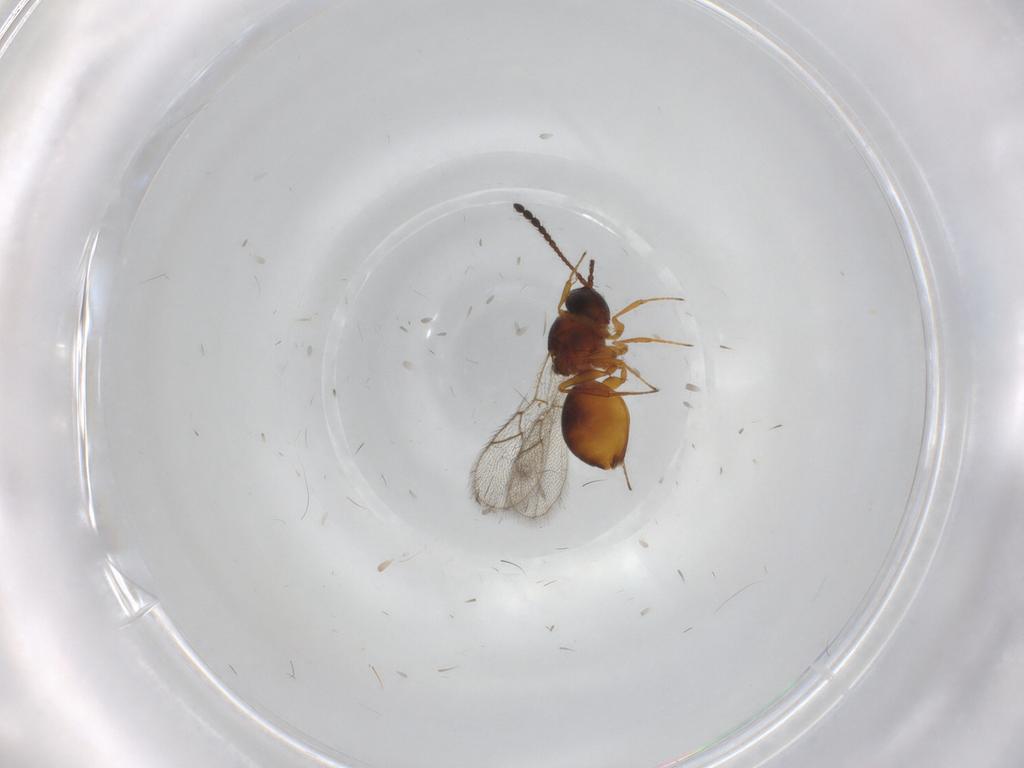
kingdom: Animalia
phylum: Arthropoda
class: Insecta
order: Hymenoptera
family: Figitidae
